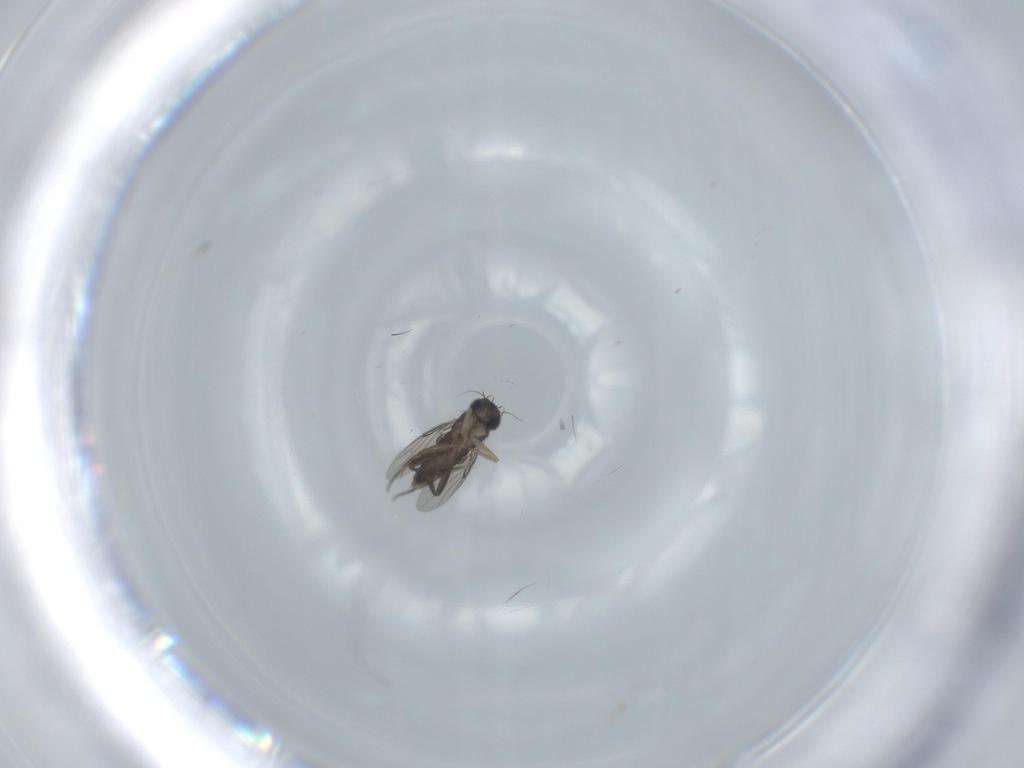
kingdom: Animalia
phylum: Arthropoda
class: Insecta
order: Diptera
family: Phoridae
